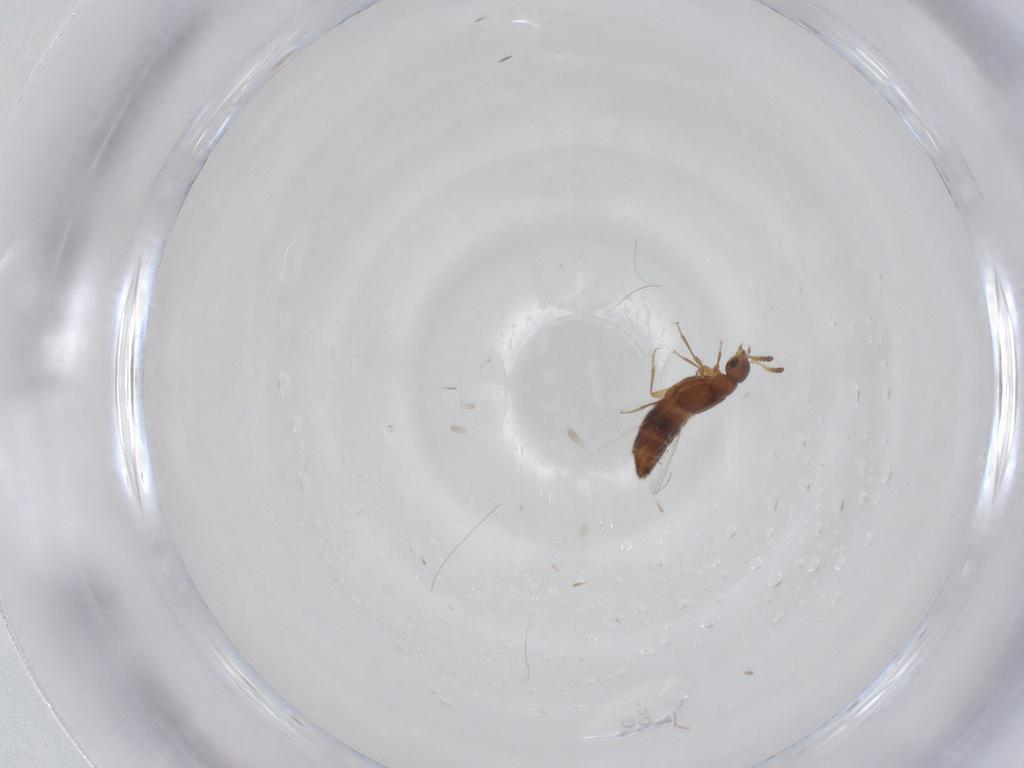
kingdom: Animalia
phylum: Arthropoda
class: Insecta
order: Coleoptera
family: Staphylinidae
